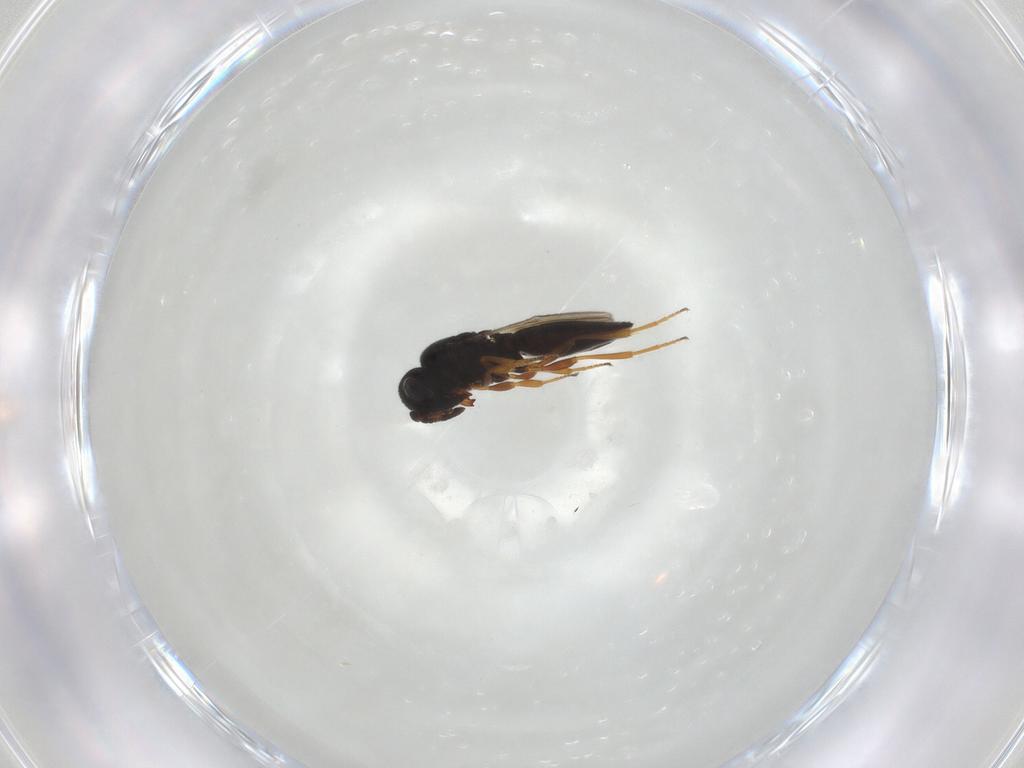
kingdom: Animalia
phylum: Arthropoda
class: Insecta
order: Hymenoptera
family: Scelionidae
